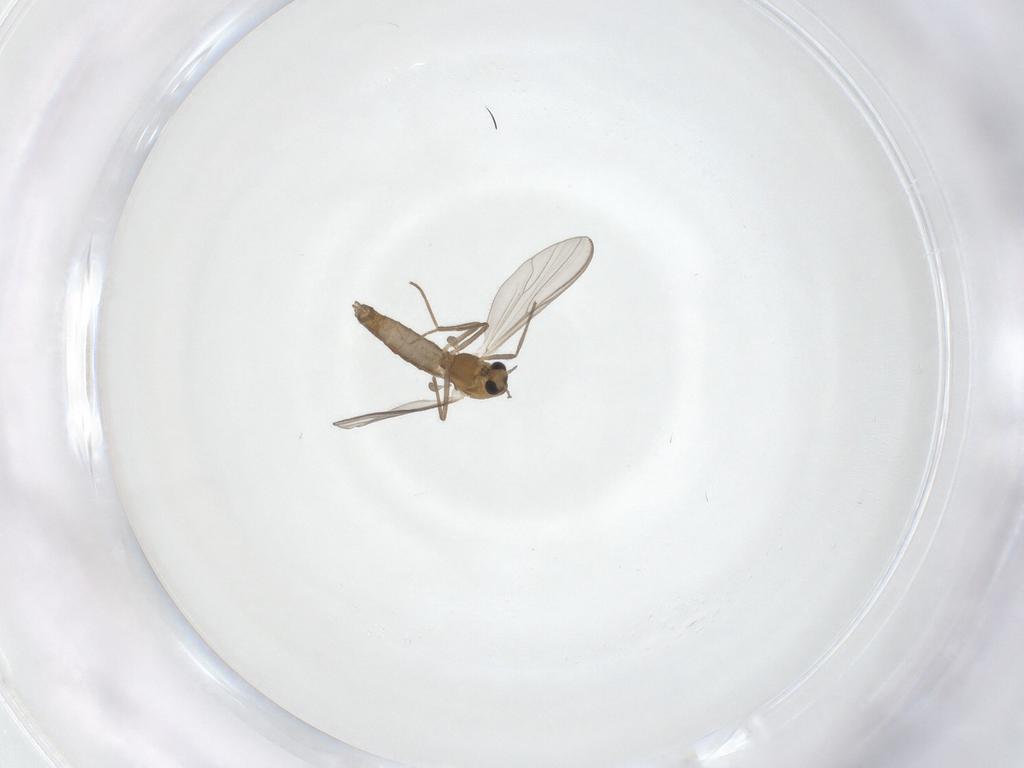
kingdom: Animalia
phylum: Arthropoda
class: Insecta
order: Diptera
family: Chironomidae
